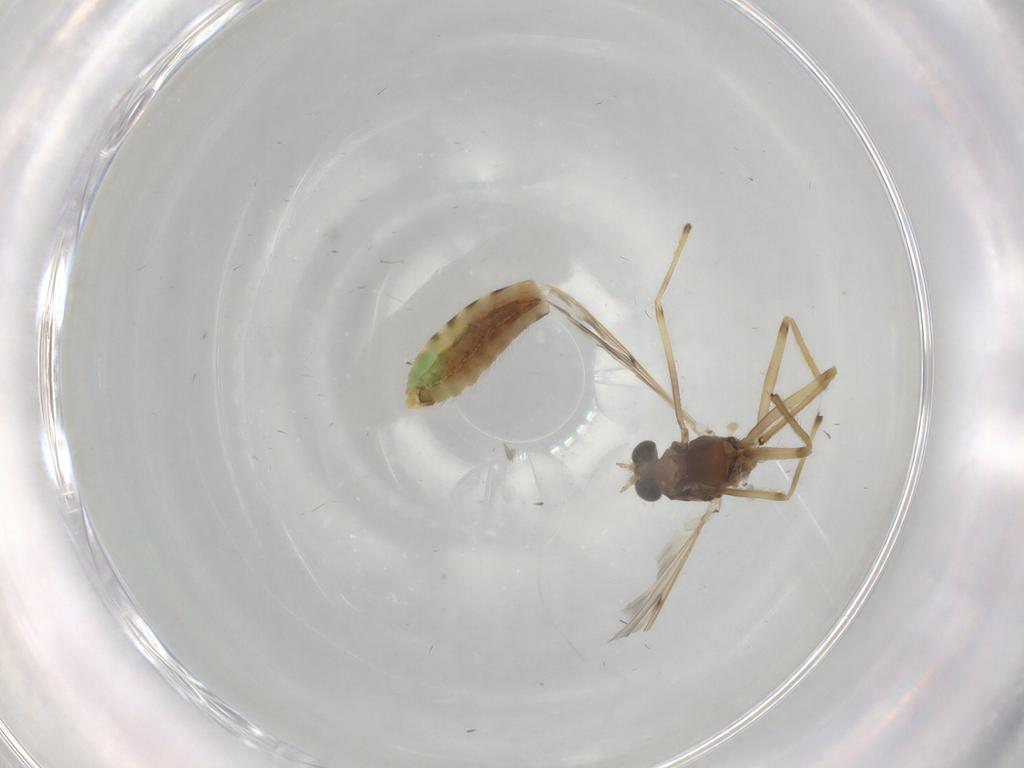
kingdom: Animalia
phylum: Arthropoda
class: Insecta
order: Diptera
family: Chironomidae
